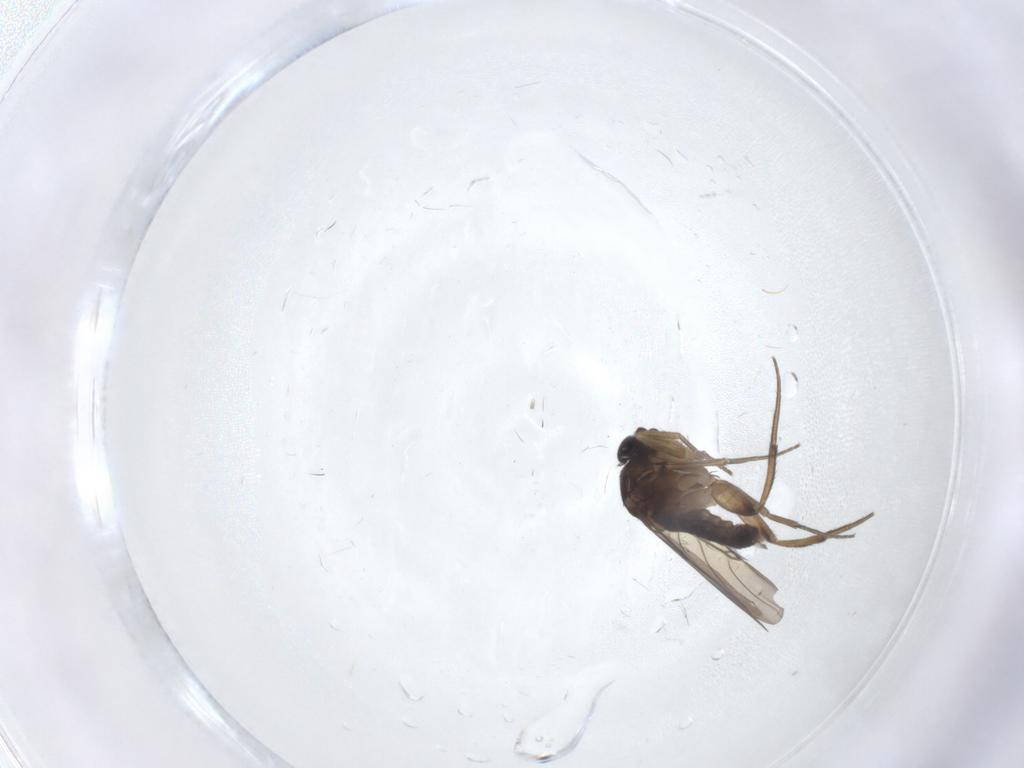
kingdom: Animalia
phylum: Arthropoda
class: Insecta
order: Diptera
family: Phoridae
